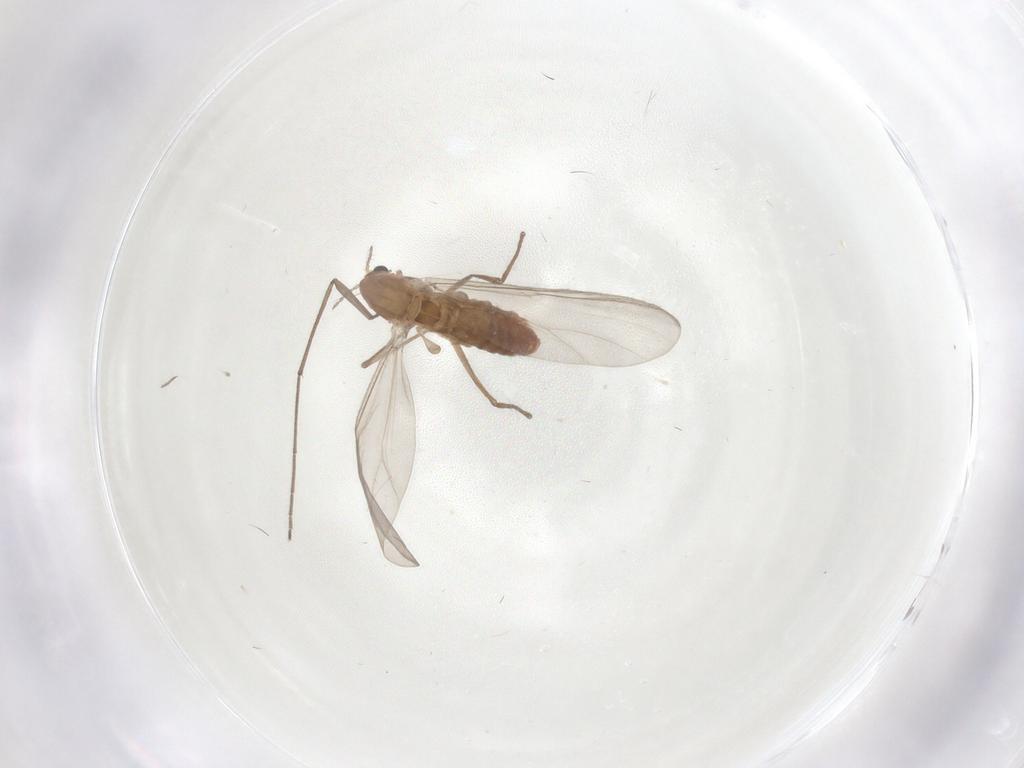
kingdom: Animalia
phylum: Arthropoda
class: Insecta
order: Diptera
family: Chironomidae
